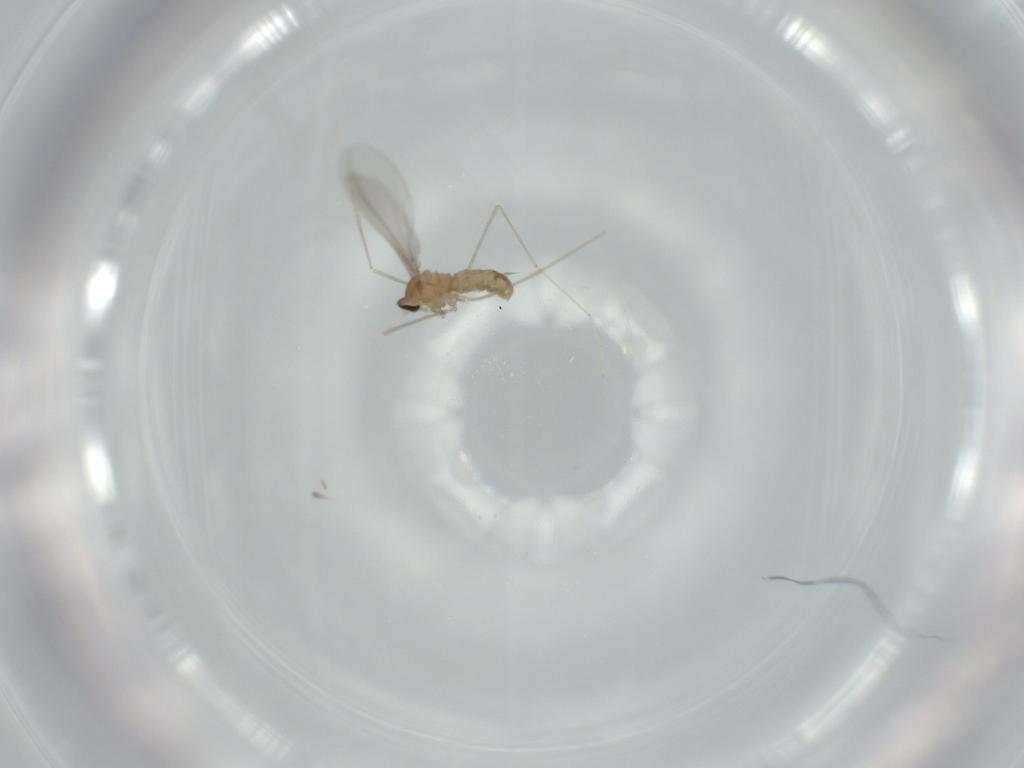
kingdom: Animalia
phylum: Arthropoda
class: Insecta
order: Diptera
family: Cecidomyiidae
